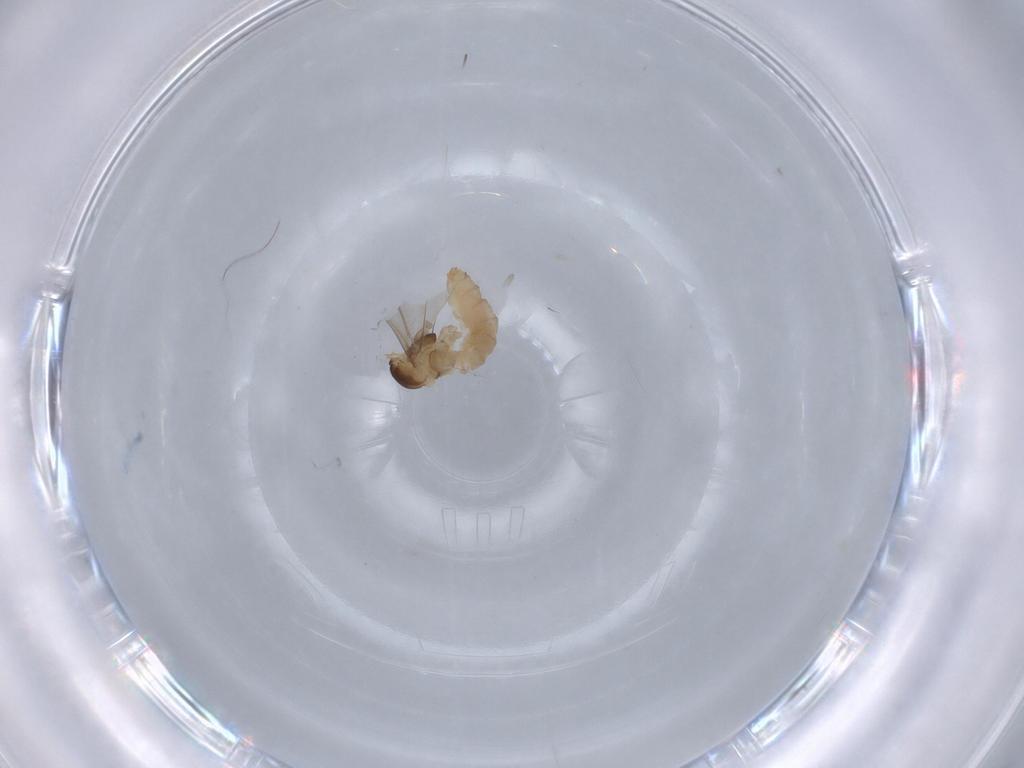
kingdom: Animalia
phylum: Arthropoda
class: Insecta
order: Diptera
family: Cecidomyiidae
